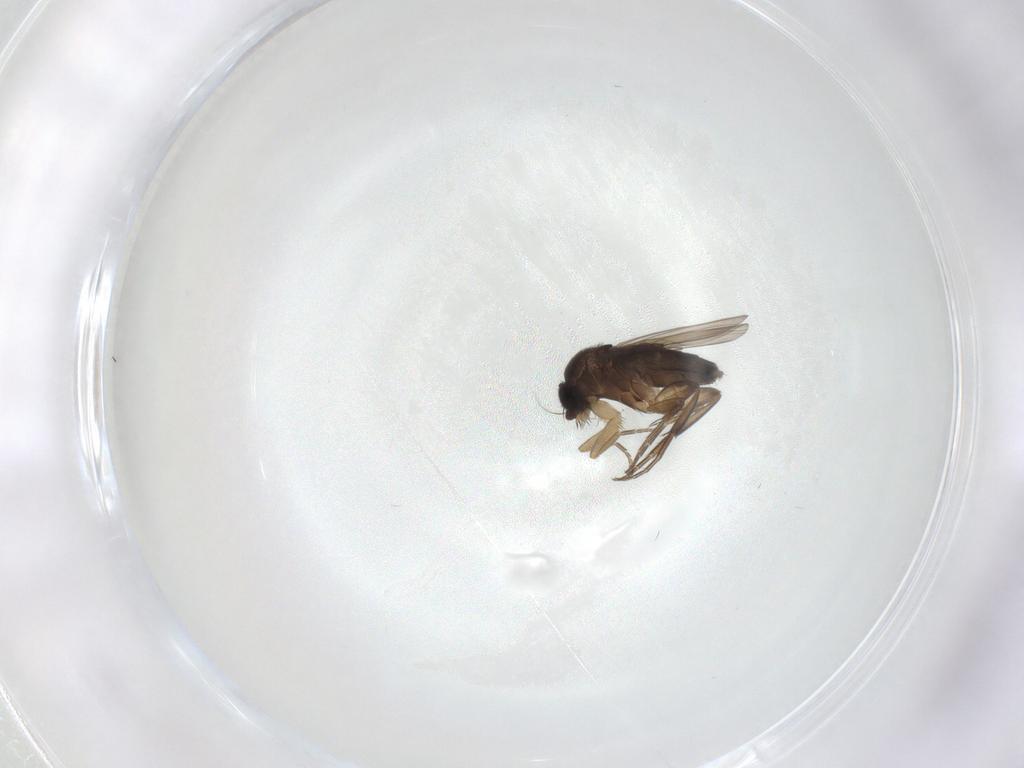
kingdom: Animalia
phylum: Arthropoda
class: Insecta
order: Diptera
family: Phoridae
